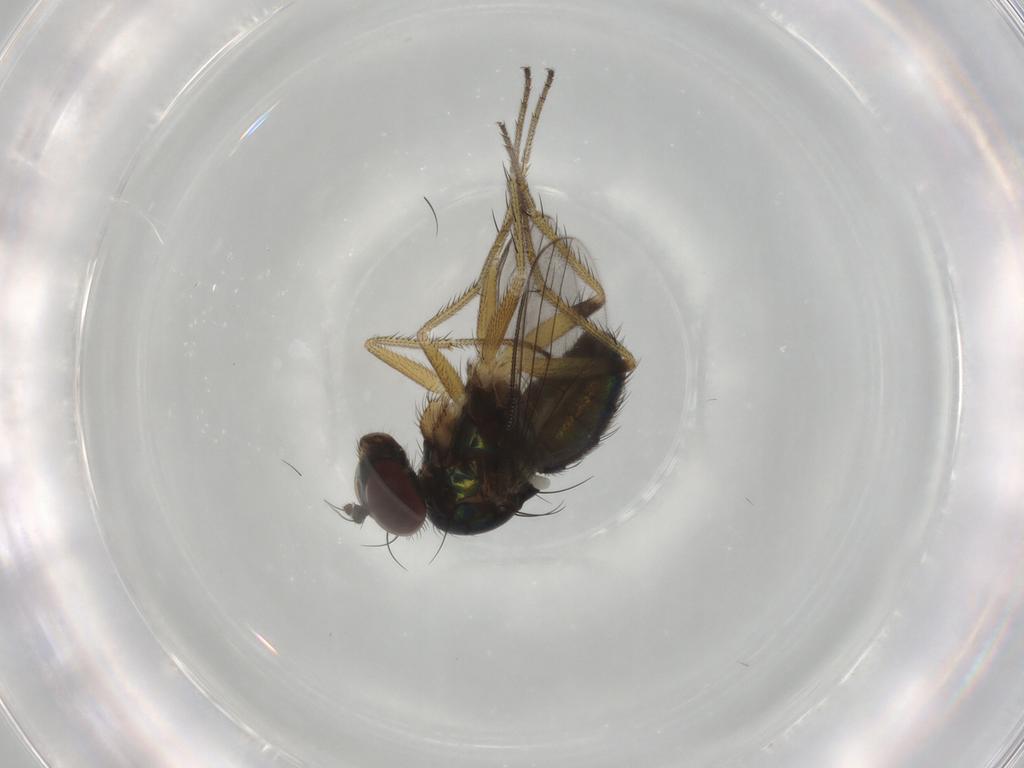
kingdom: Animalia
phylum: Arthropoda
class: Insecta
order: Diptera
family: Dolichopodidae
